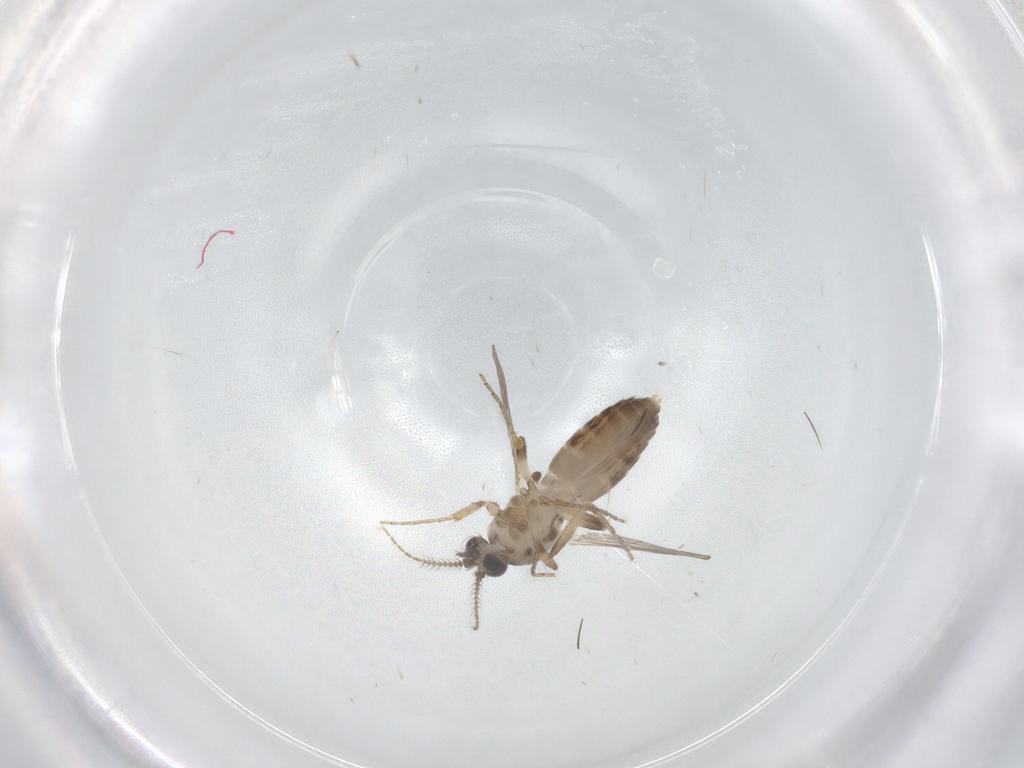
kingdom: Animalia
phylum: Arthropoda
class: Insecta
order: Diptera
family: Ceratopogonidae
